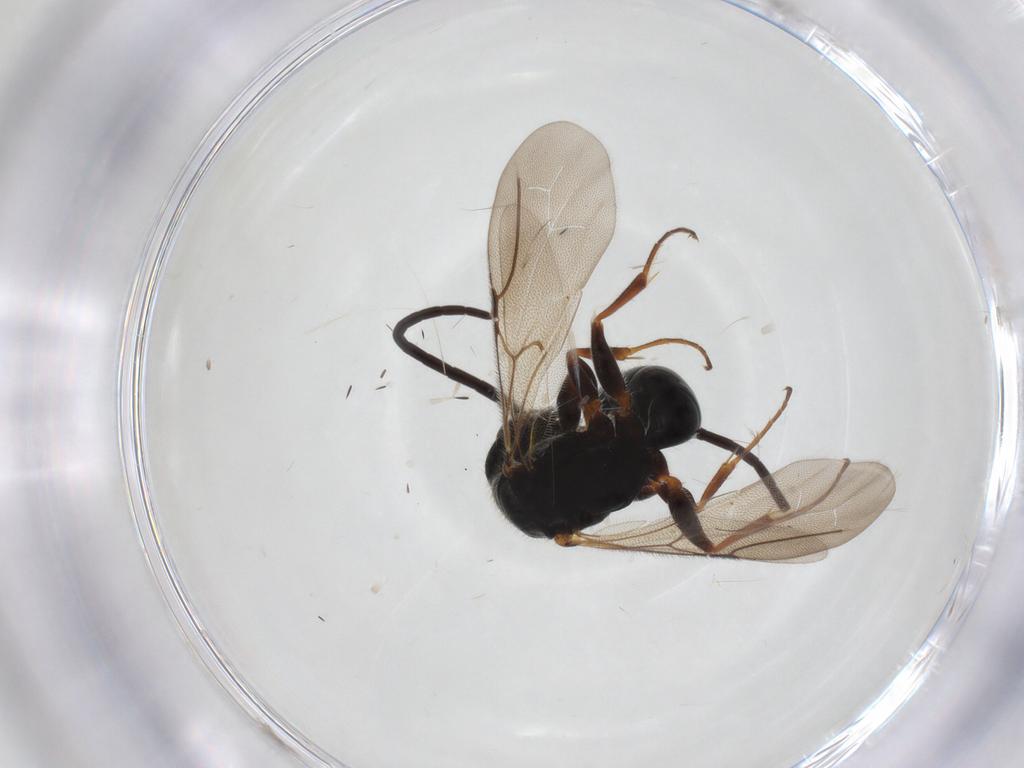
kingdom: Animalia
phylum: Arthropoda
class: Insecta
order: Hymenoptera
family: Bethylidae
